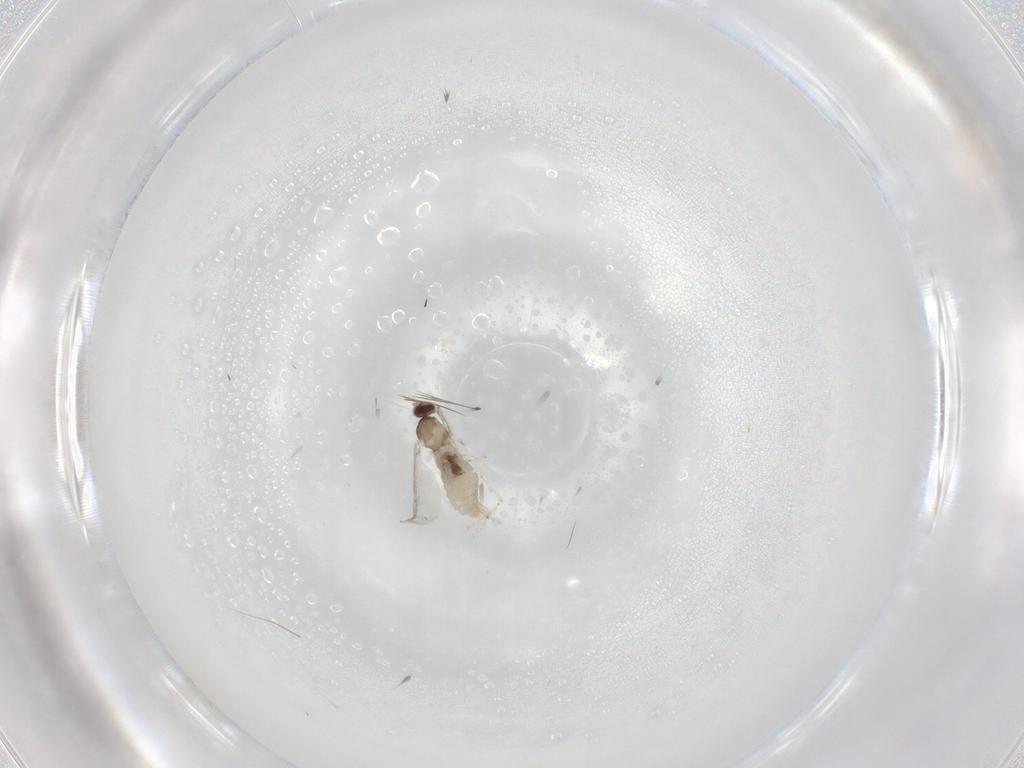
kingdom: Animalia
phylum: Arthropoda
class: Insecta
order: Diptera
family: Cecidomyiidae
